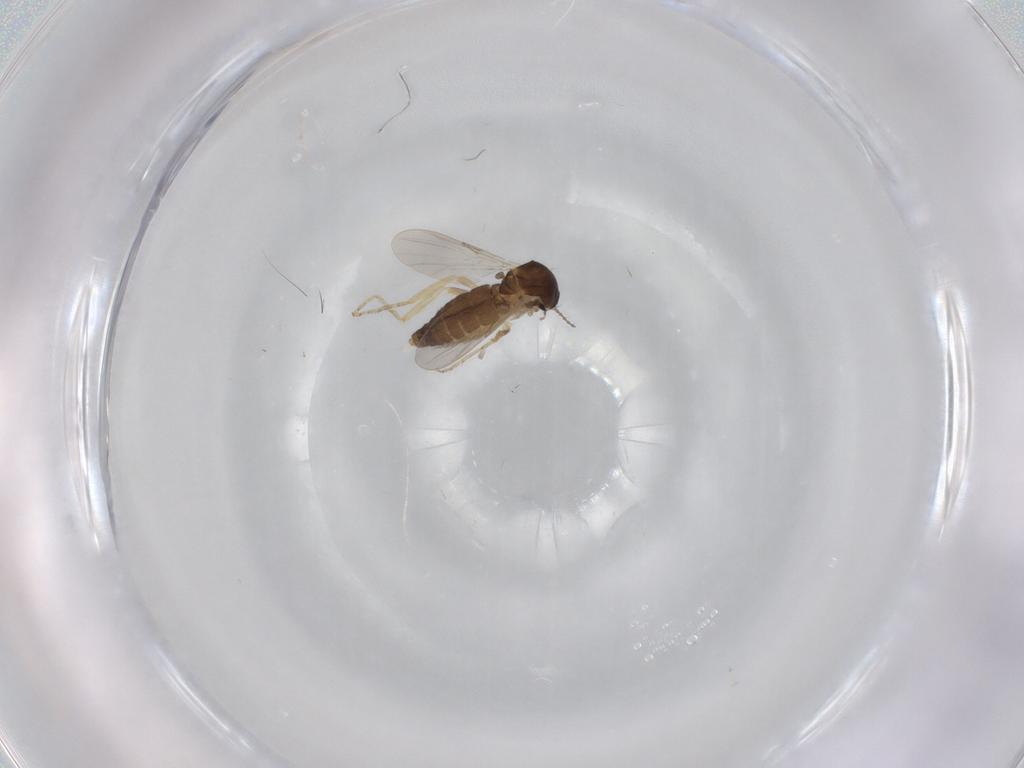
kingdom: Animalia
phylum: Arthropoda
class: Insecta
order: Diptera
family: Ceratopogonidae
